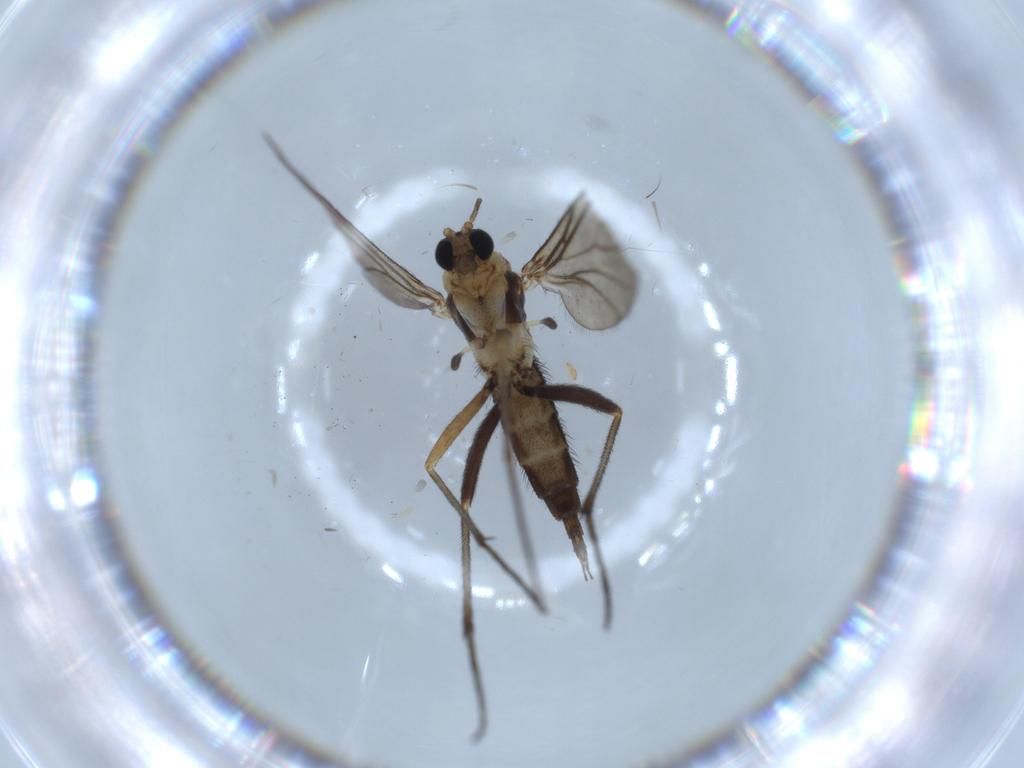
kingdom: Animalia
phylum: Arthropoda
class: Insecta
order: Diptera
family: Sciaridae
